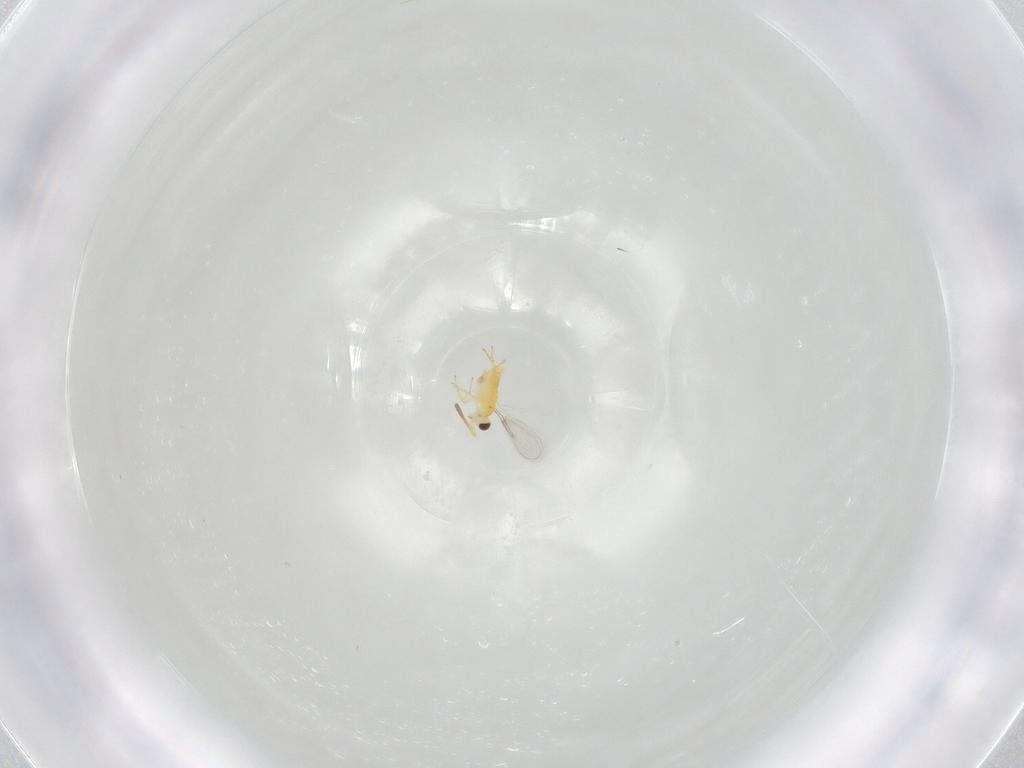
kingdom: Animalia
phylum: Arthropoda
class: Insecta
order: Hymenoptera
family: Aphelinidae
